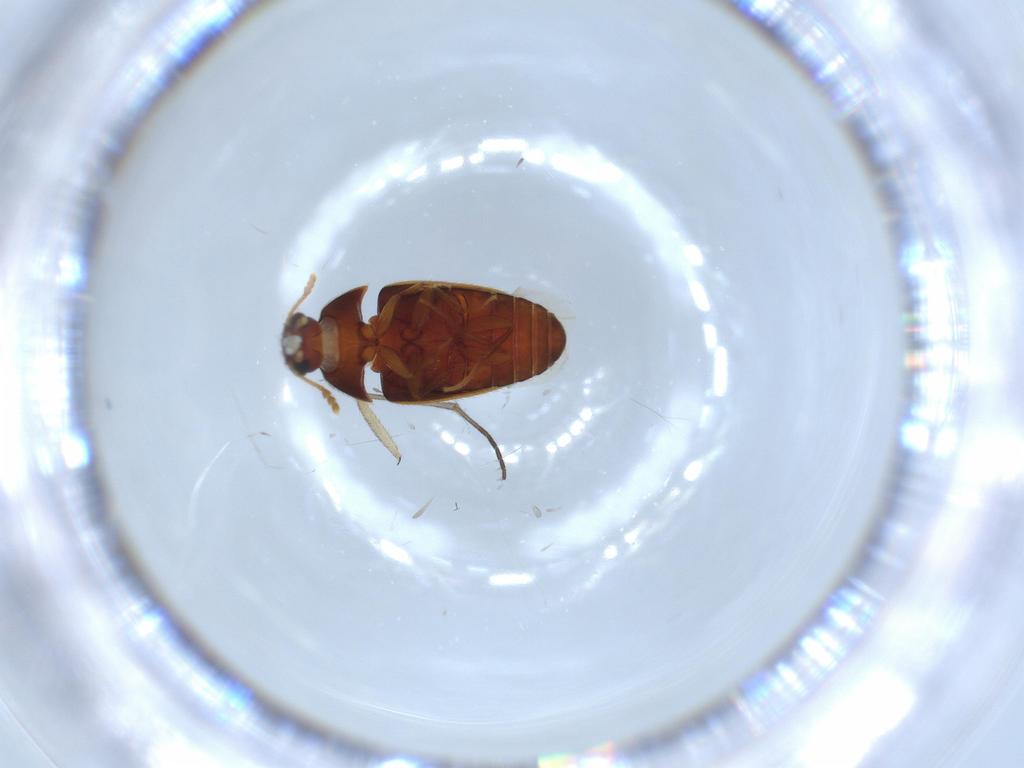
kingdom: Animalia
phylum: Arthropoda
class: Insecta
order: Coleoptera
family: Mycetophagidae
